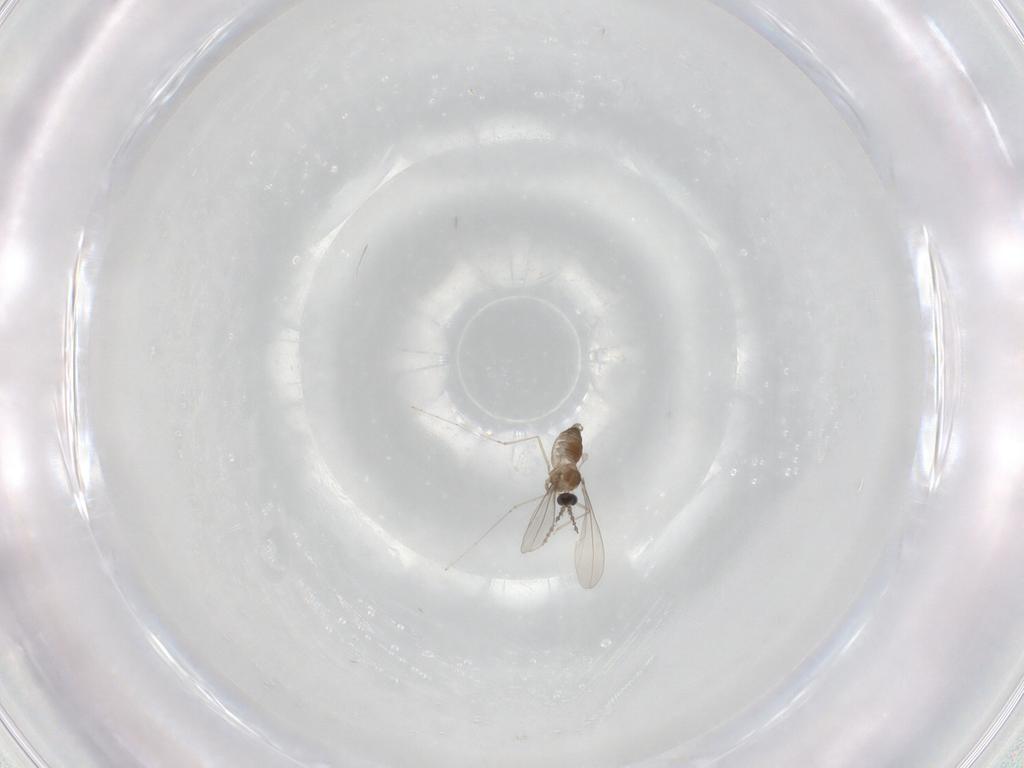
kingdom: Animalia
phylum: Arthropoda
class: Insecta
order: Diptera
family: Cecidomyiidae
